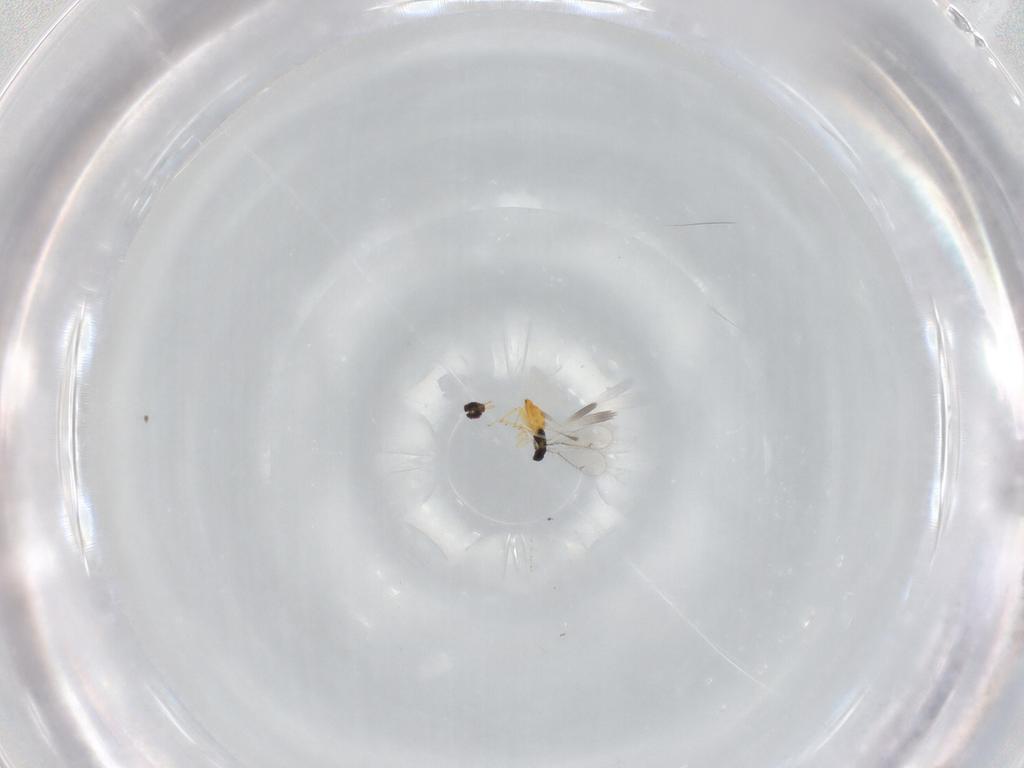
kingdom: Animalia
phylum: Arthropoda
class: Insecta
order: Hymenoptera
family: Eulophidae
